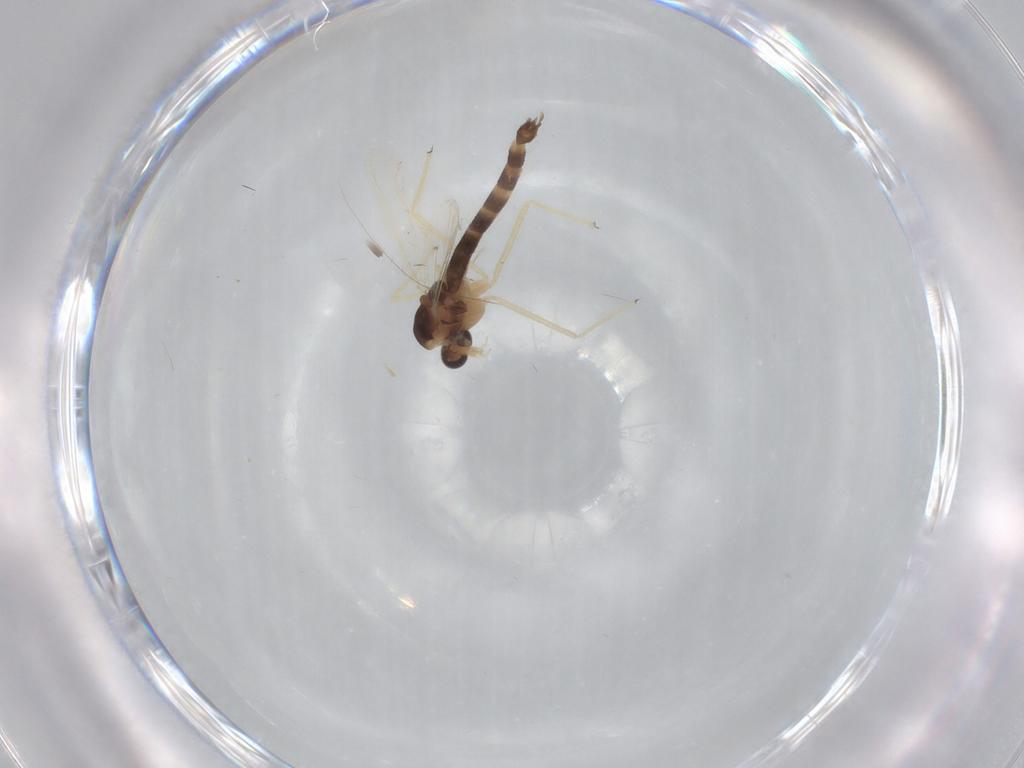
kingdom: Animalia
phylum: Arthropoda
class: Insecta
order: Diptera
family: Chironomidae
